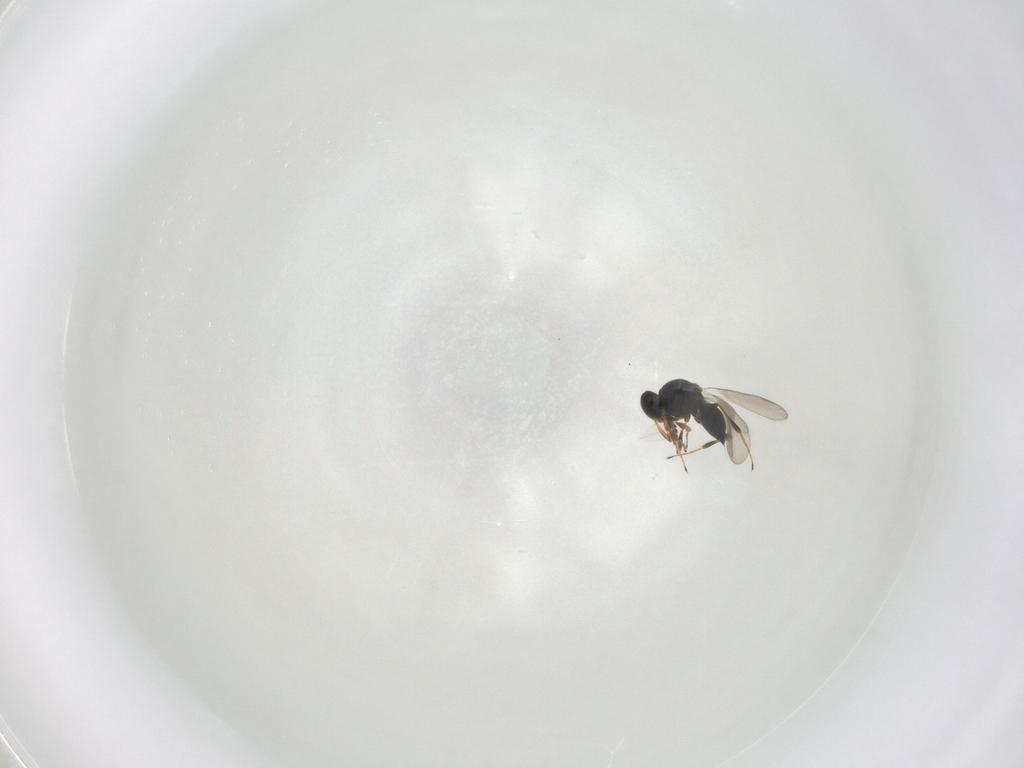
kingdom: Animalia
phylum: Arthropoda
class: Insecta
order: Hymenoptera
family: Platygastridae
